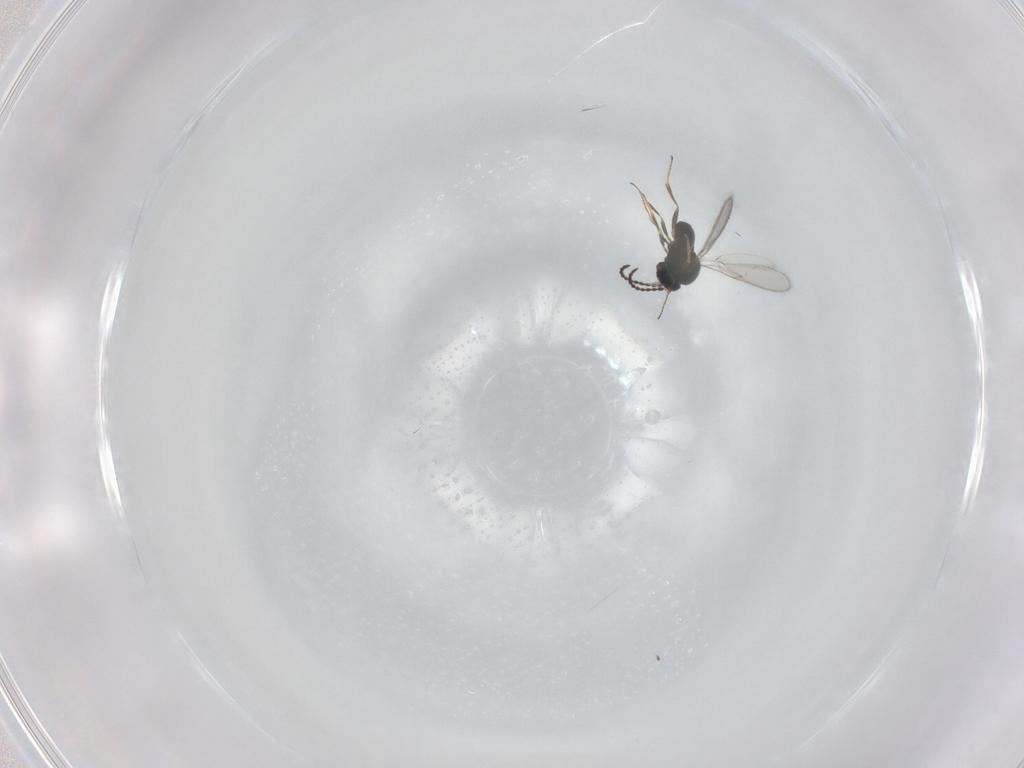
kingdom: Animalia
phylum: Arthropoda
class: Insecta
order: Hymenoptera
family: Scelionidae
